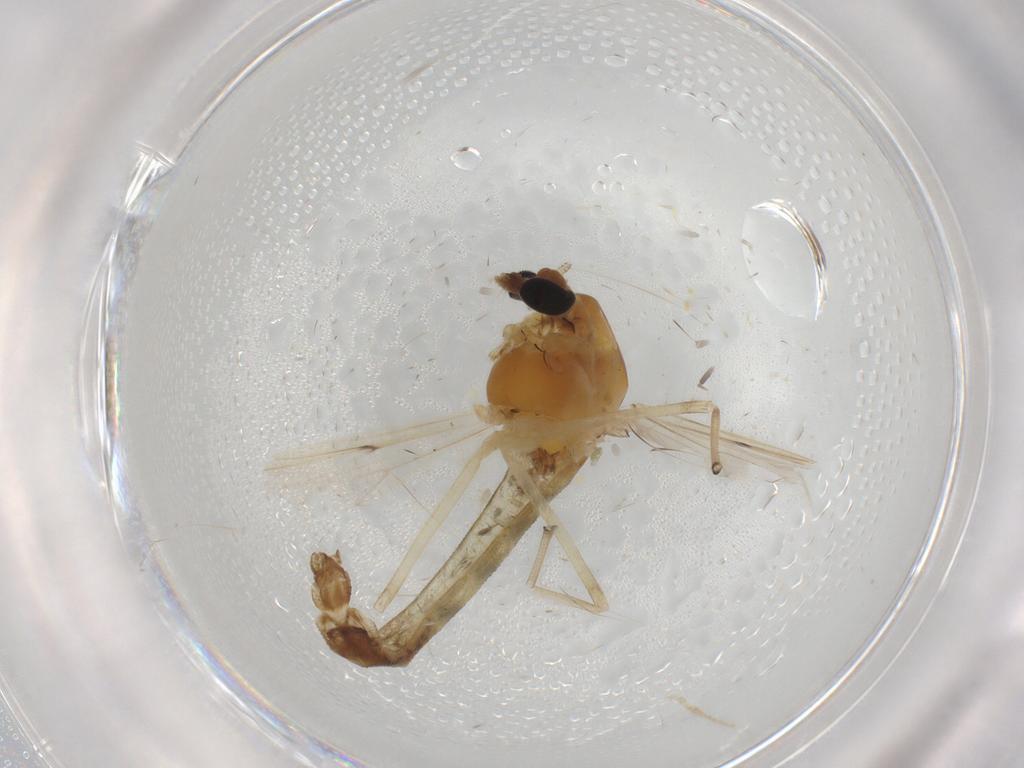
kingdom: Animalia
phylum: Arthropoda
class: Insecta
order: Diptera
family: Chironomidae
